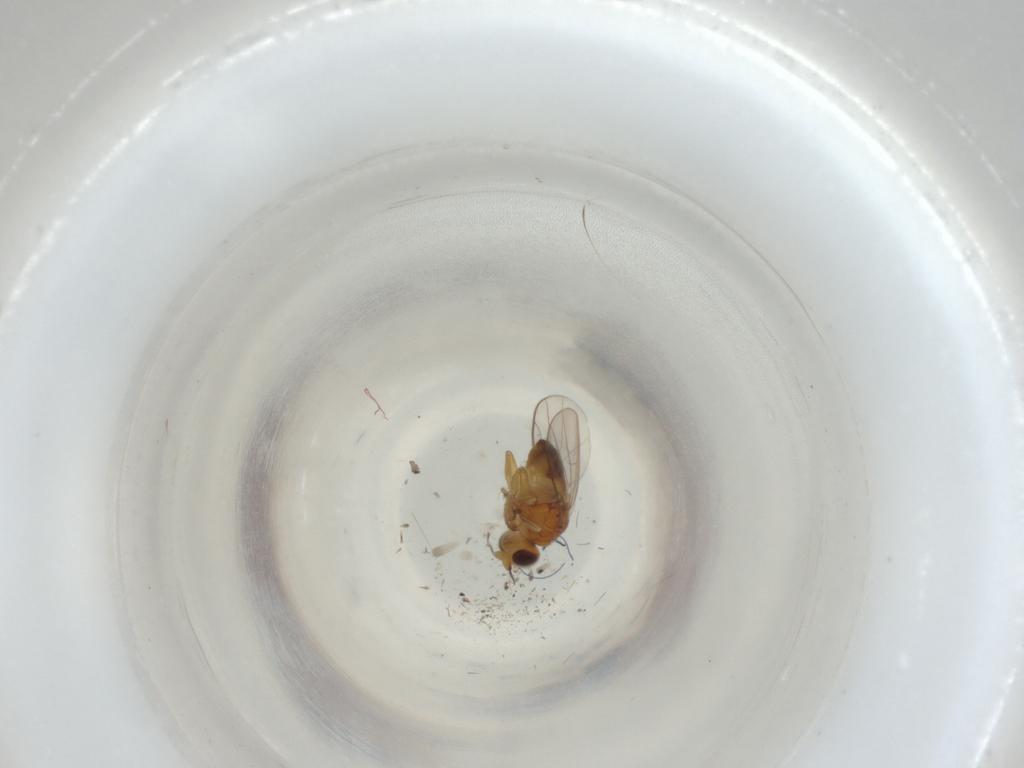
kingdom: Animalia
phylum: Arthropoda
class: Insecta
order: Diptera
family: Chloropidae
